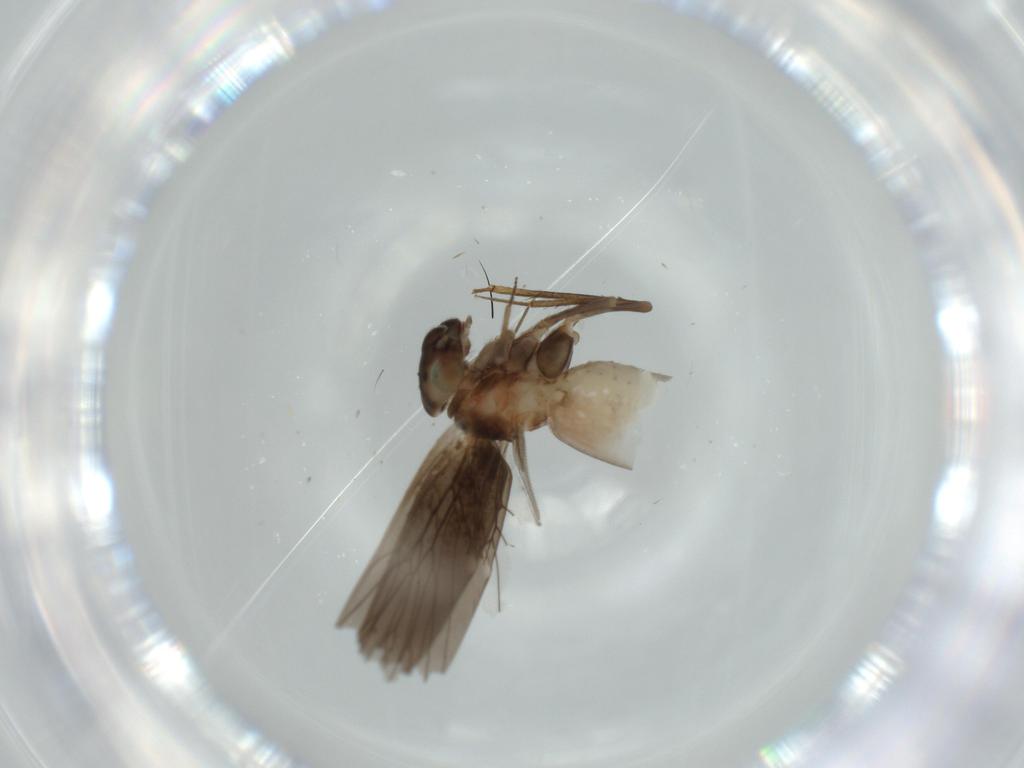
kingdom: Animalia
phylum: Arthropoda
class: Insecta
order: Psocodea
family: Lepidopsocidae
